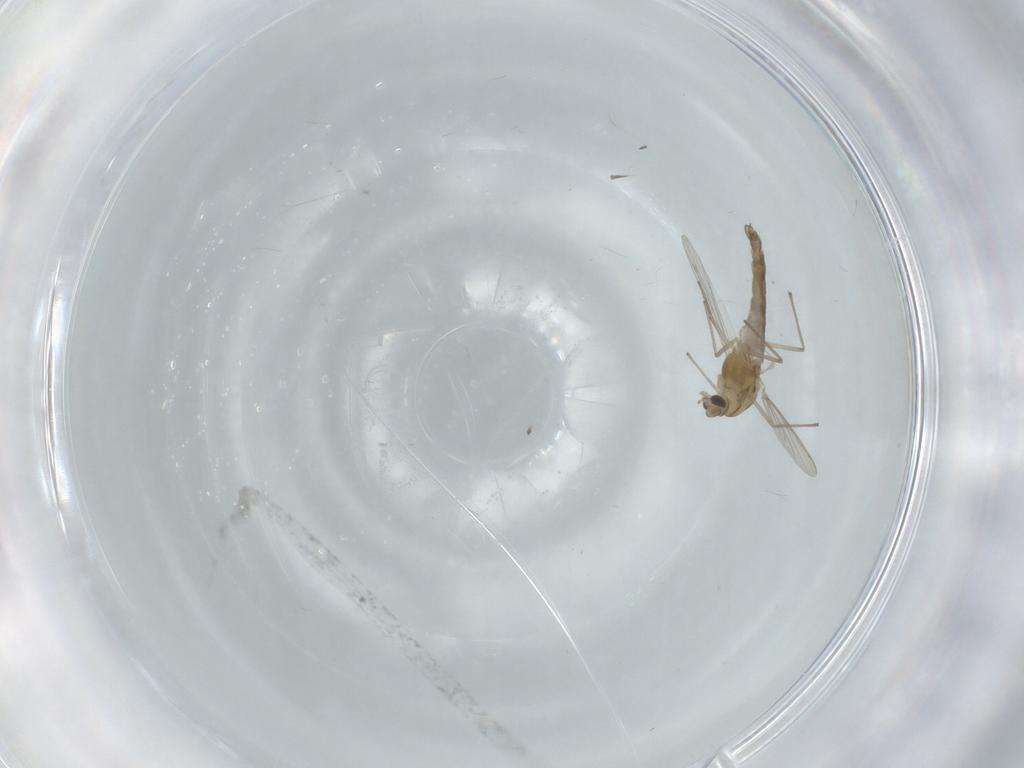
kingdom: Animalia
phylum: Arthropoda
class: Insecta
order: Diptera
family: Chironomidae
